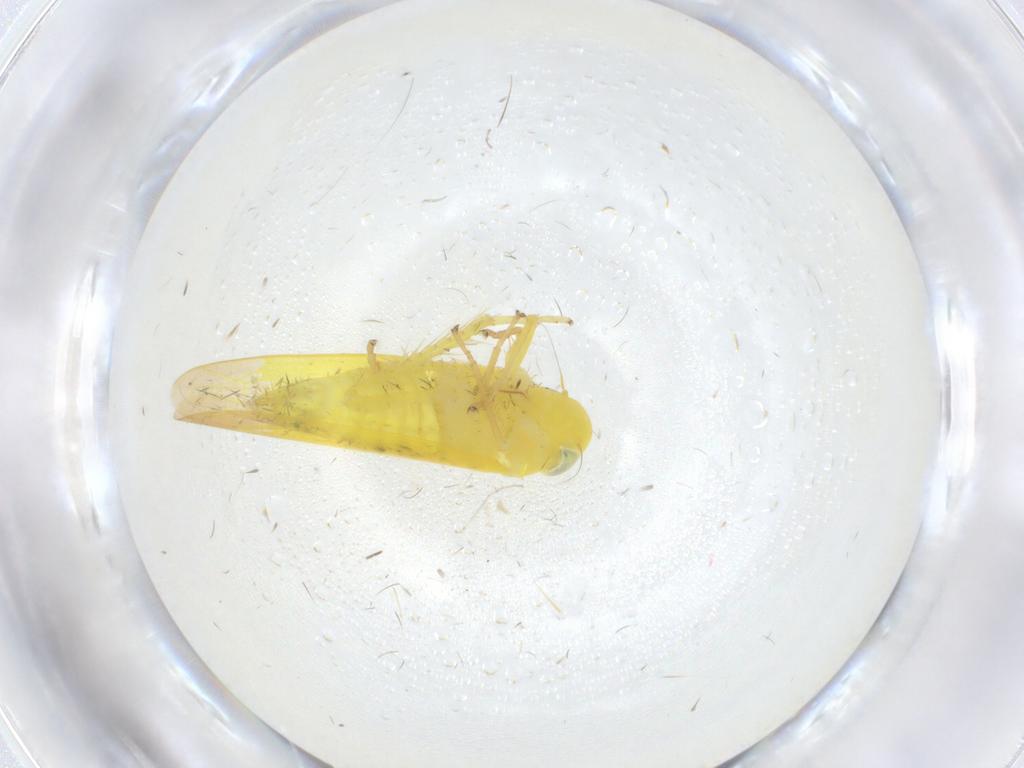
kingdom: Animalia
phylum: Arthropoda
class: Insecta
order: Hemiptera
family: Cicadellidae
